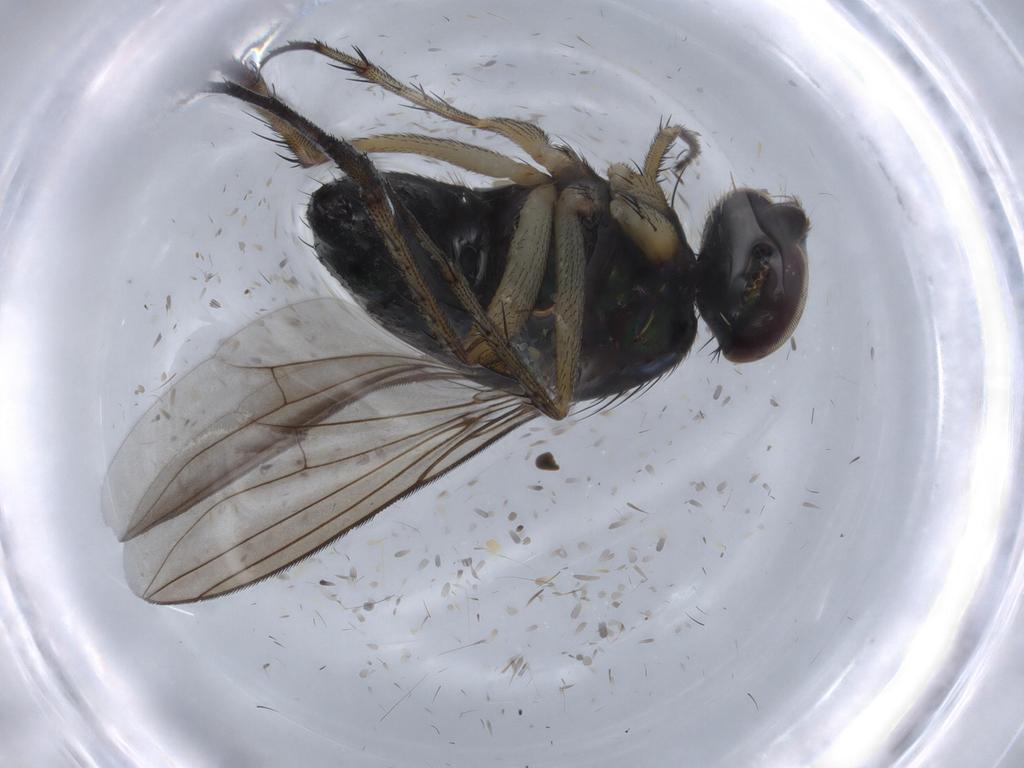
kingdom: Animalia
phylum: Arthropoda
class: Insecta
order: Diptera
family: Dolichopodidae
